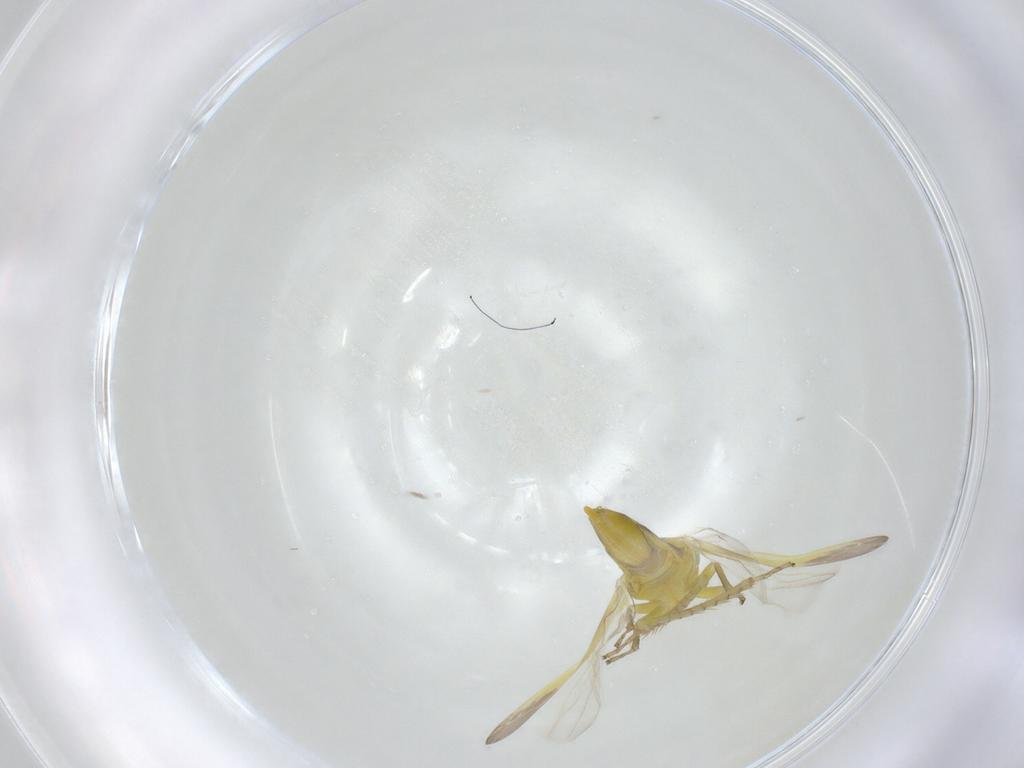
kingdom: Animalia
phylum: Arthropoda
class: Insecta
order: Hemiptera
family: Cicadellidae
